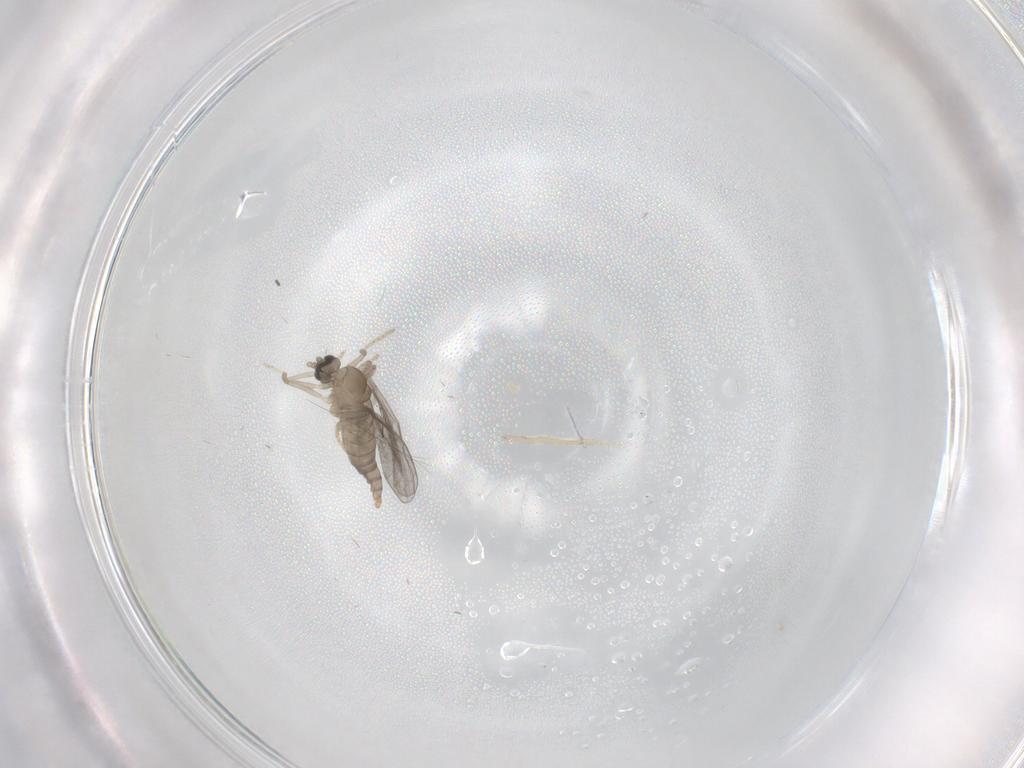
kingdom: Animalia
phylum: Arthropoda
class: Insecta
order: Diptera
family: Cecidomyiidae
